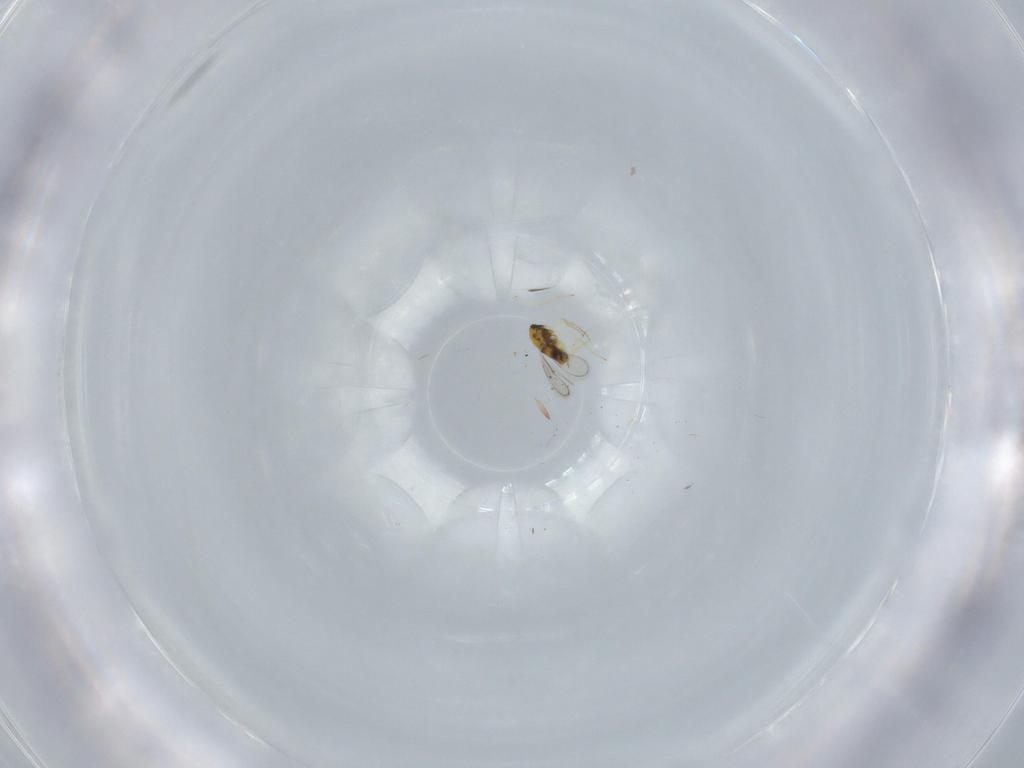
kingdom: Animalia
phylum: Arthropoda
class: Insecta
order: Hymenoptera
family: Aphelinidae
